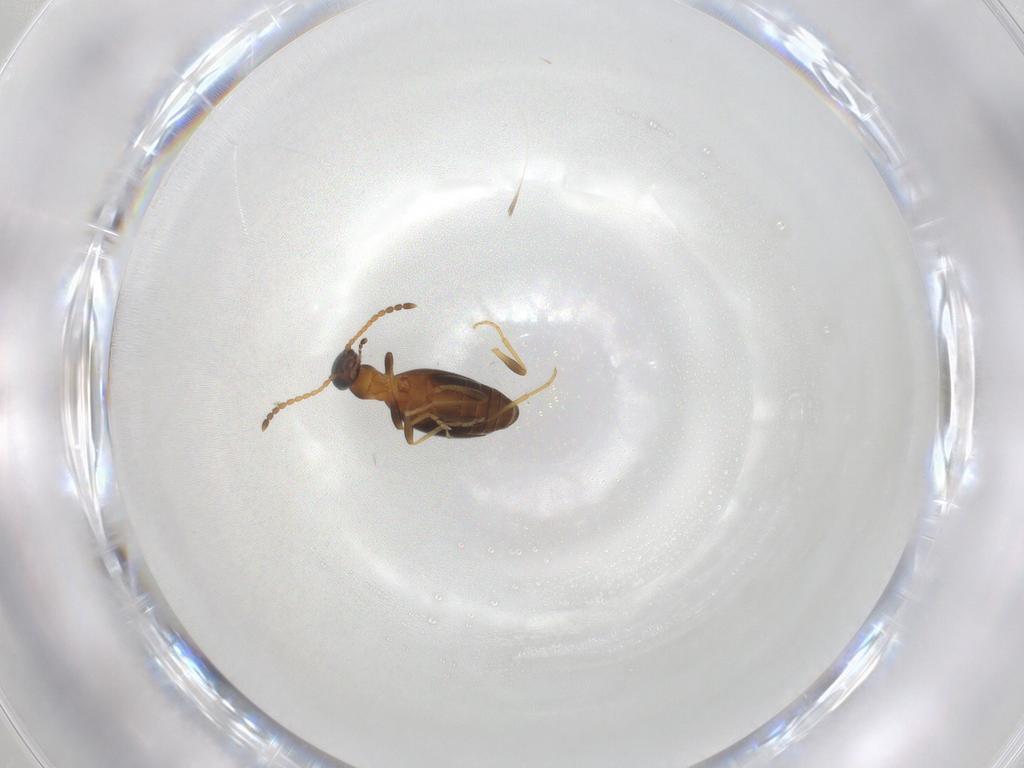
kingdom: Animalia
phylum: Arthropoda
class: Insecta
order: Coleoptera
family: Anthicidae
